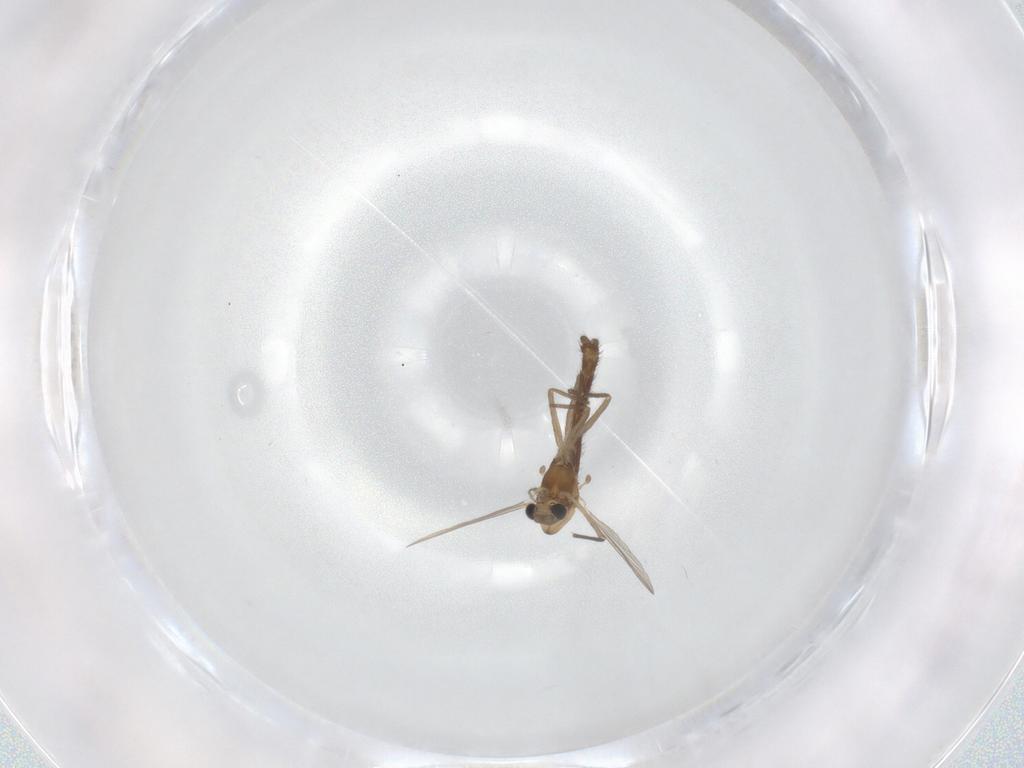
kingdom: Animalia
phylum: Arthropoda
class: Insecta
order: Diptera
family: Chironomidae
